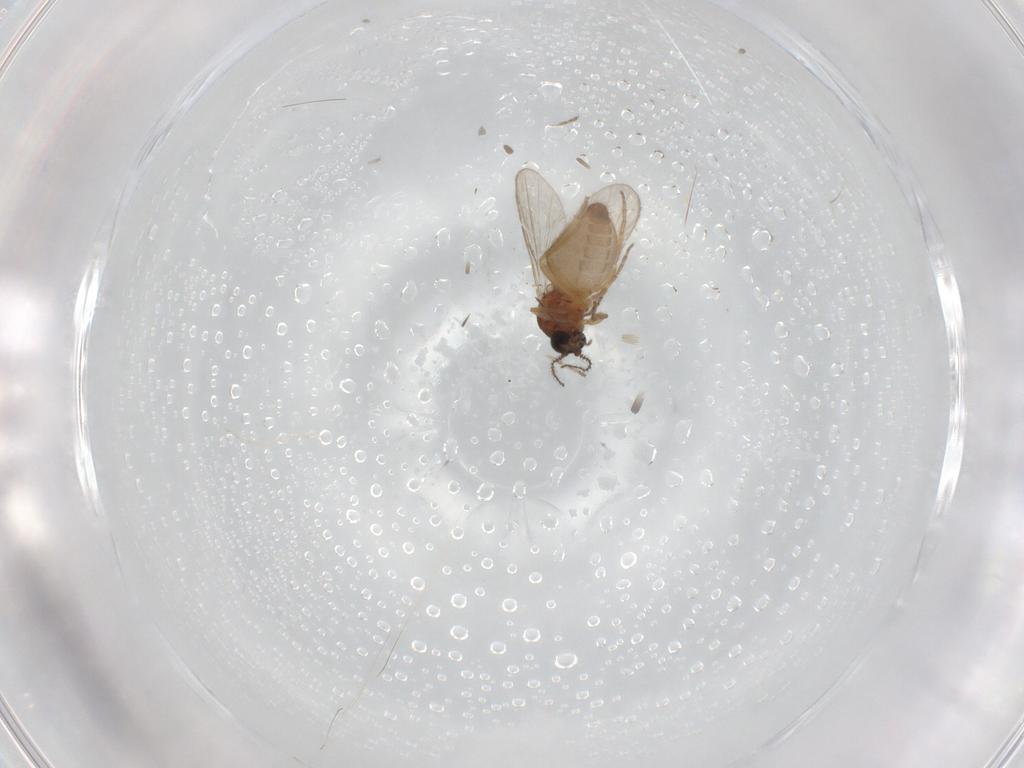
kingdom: Animalia
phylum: Arthropoda
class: Insecta
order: Diptera
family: Ceratopogonidae
